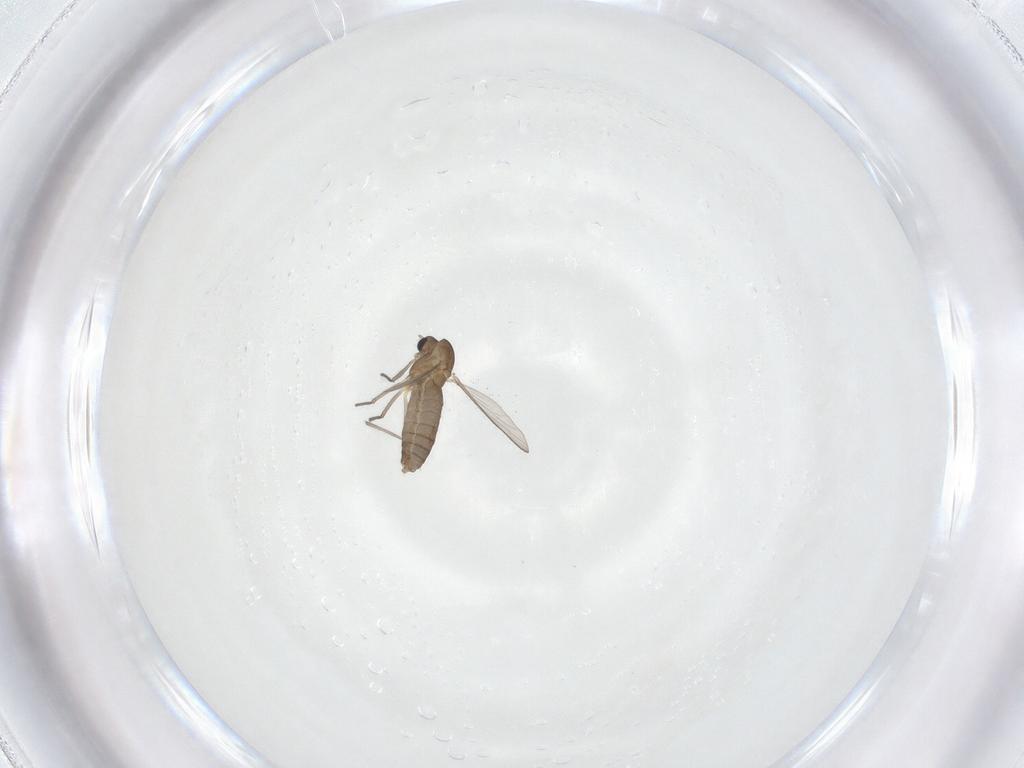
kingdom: Animalia
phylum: Arthropoda
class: Insecta
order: Diptera
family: Chironomidae
